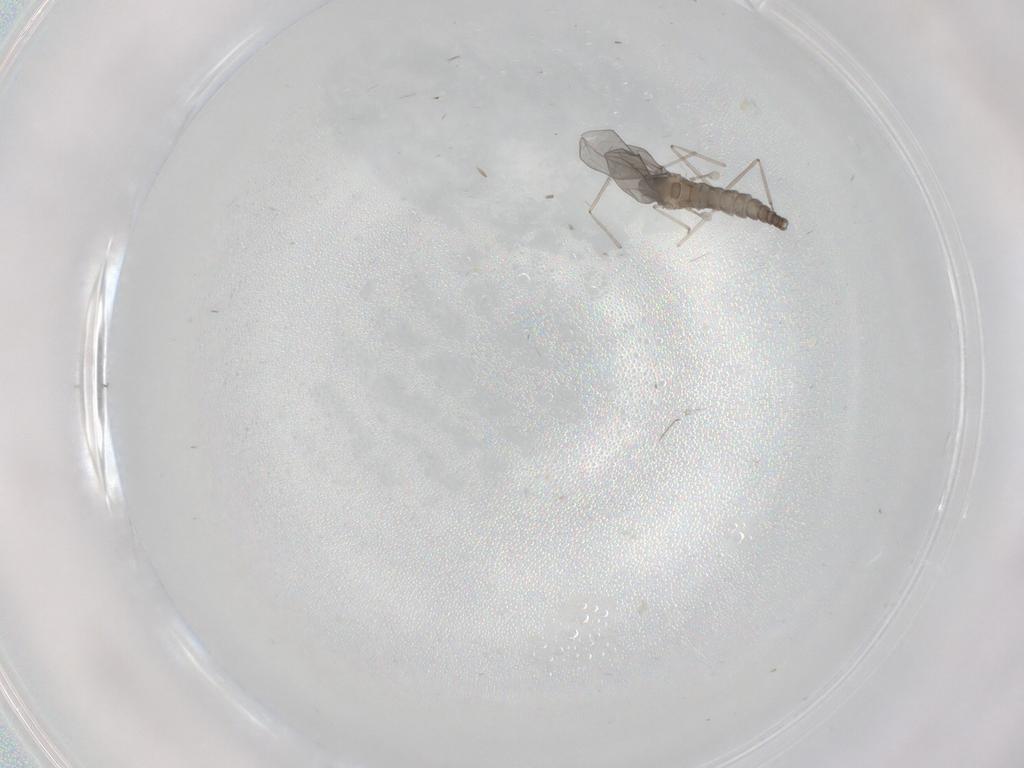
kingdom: Animalia
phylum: Arthropoda
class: Insecta
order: Diptera
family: Cecidomyiidae
